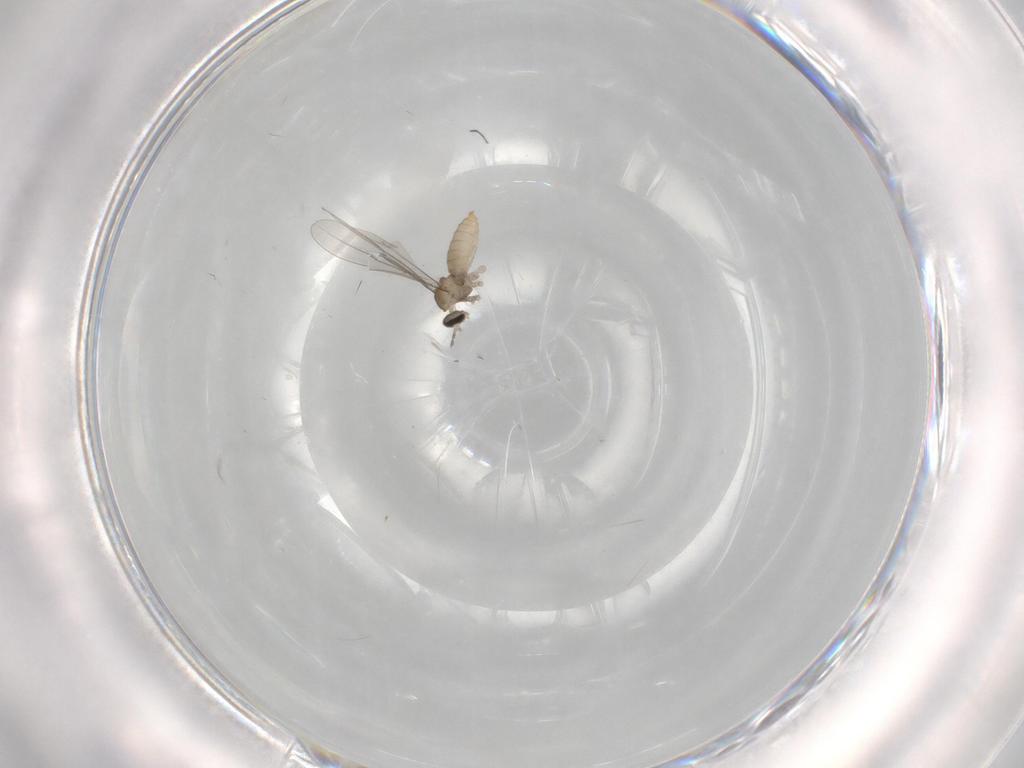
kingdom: Animalia
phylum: Arthropoda
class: Insecta
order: Diptera
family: Cecidomyiidae
